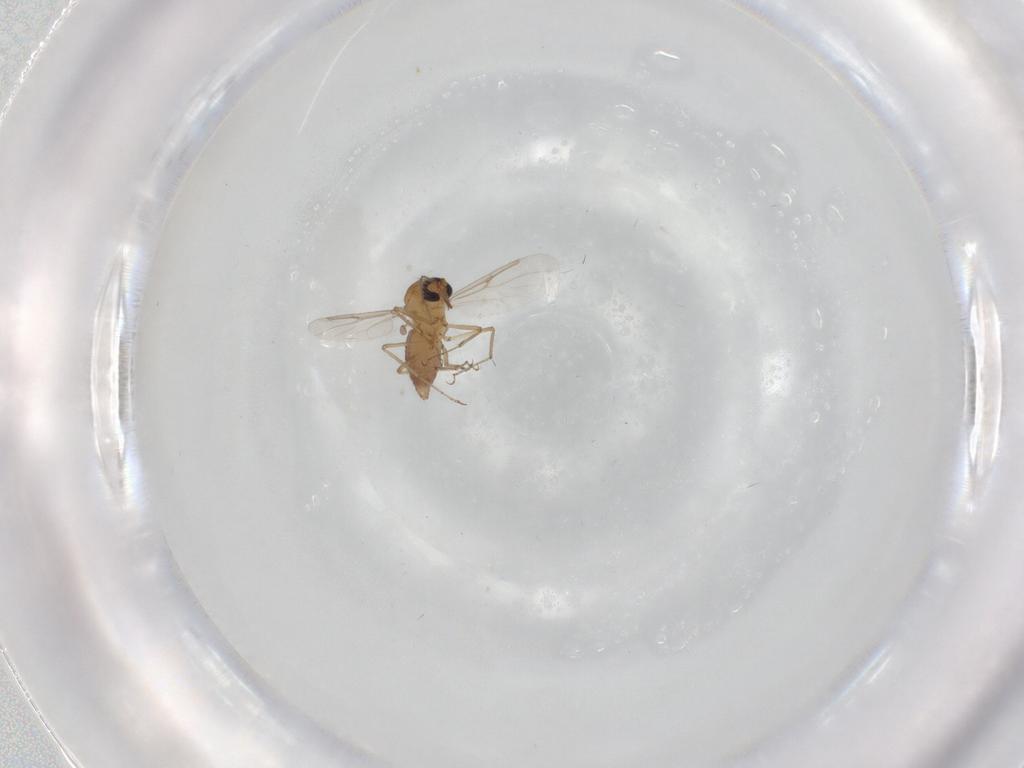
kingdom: Animalia
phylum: Arthropoda
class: Insecta
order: Diptera
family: Ceratopogonidae
